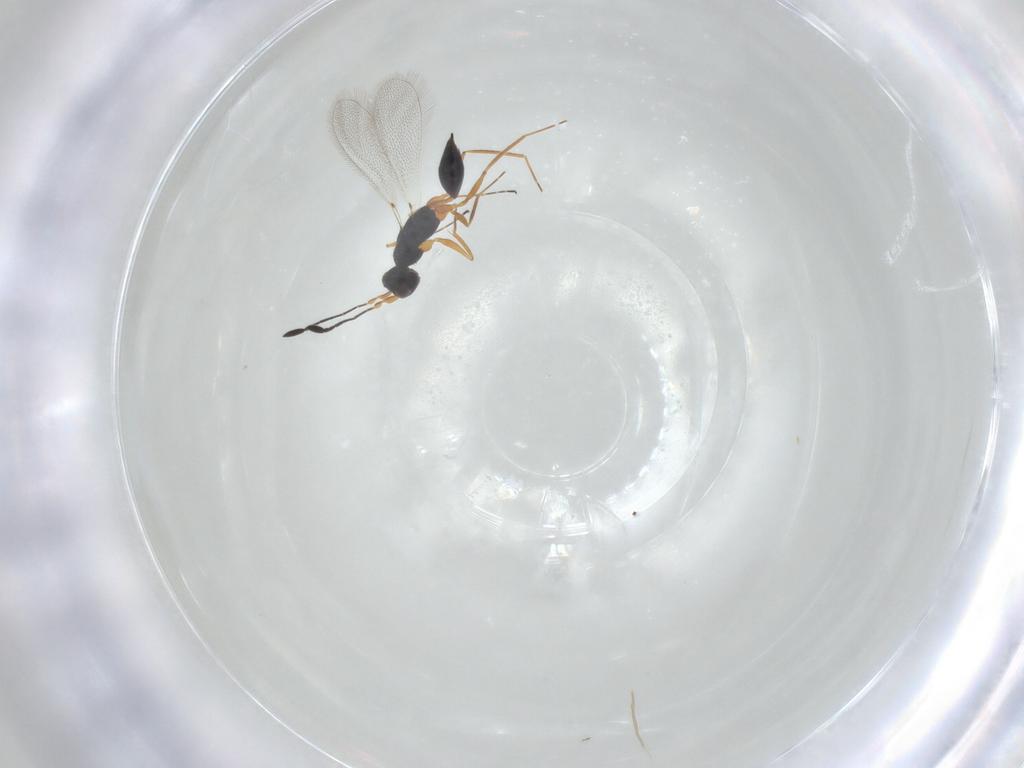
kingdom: Animalia
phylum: Arthropoda
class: Insecta
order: Hymenoptera
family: Mymaridae
